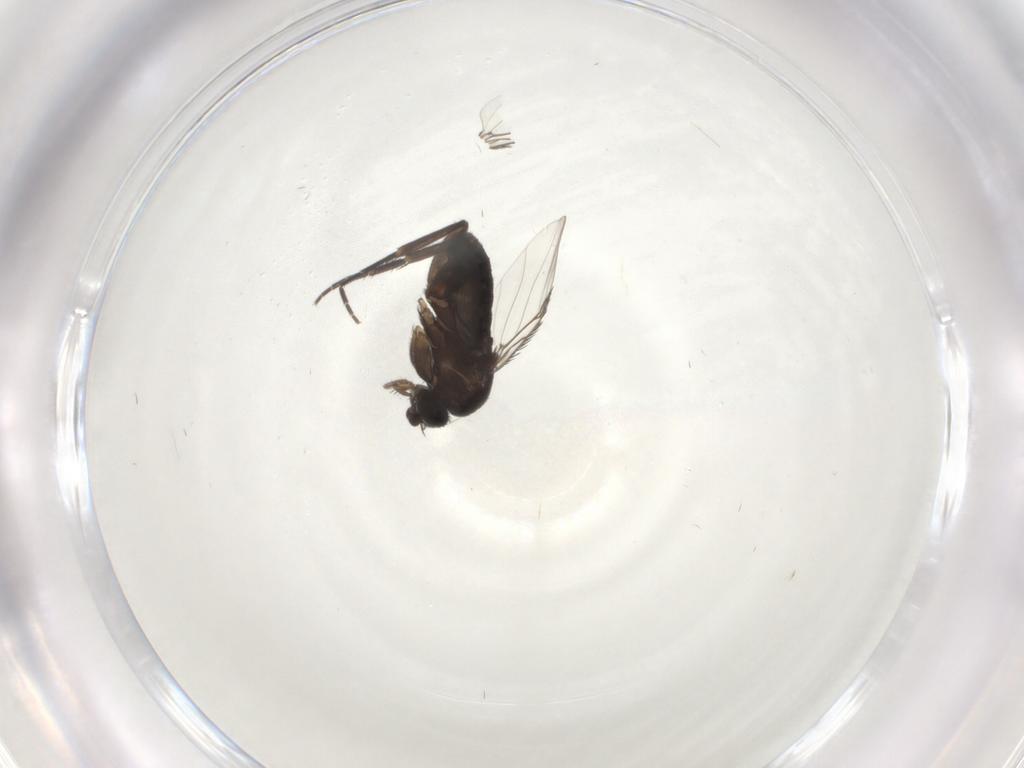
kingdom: Animalia
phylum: Arthropoda
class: Insecta
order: Diptera
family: Phoridae
